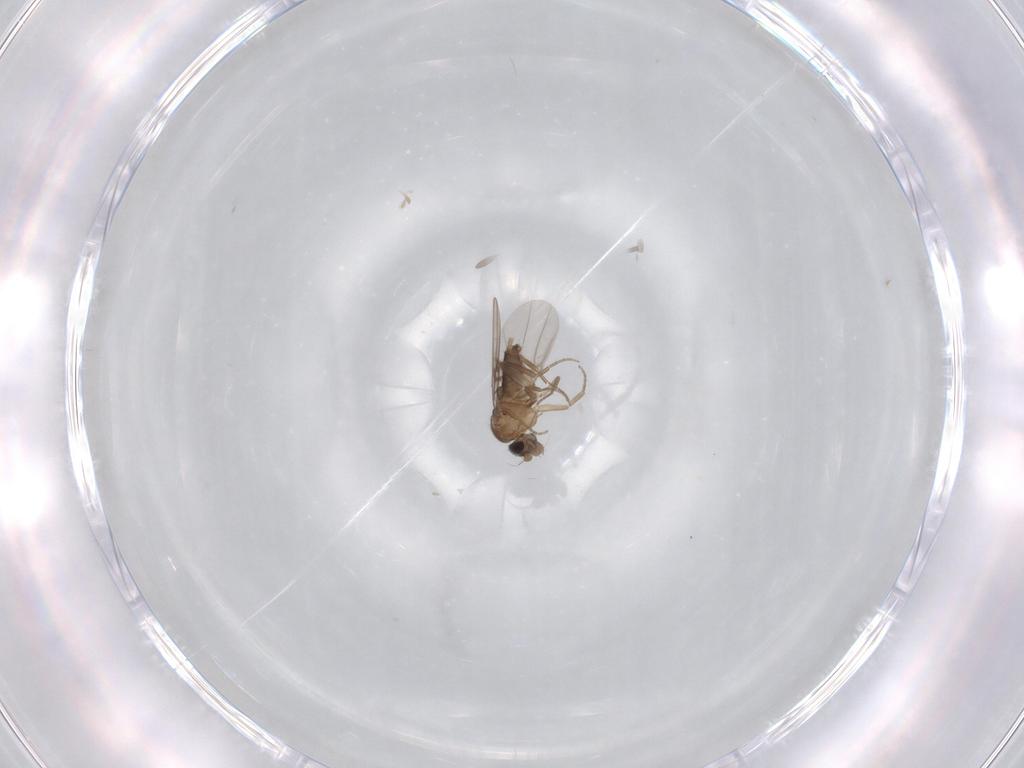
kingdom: Animalia
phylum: Arthropoda
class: Insecta
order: Diptera
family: Phoridae
